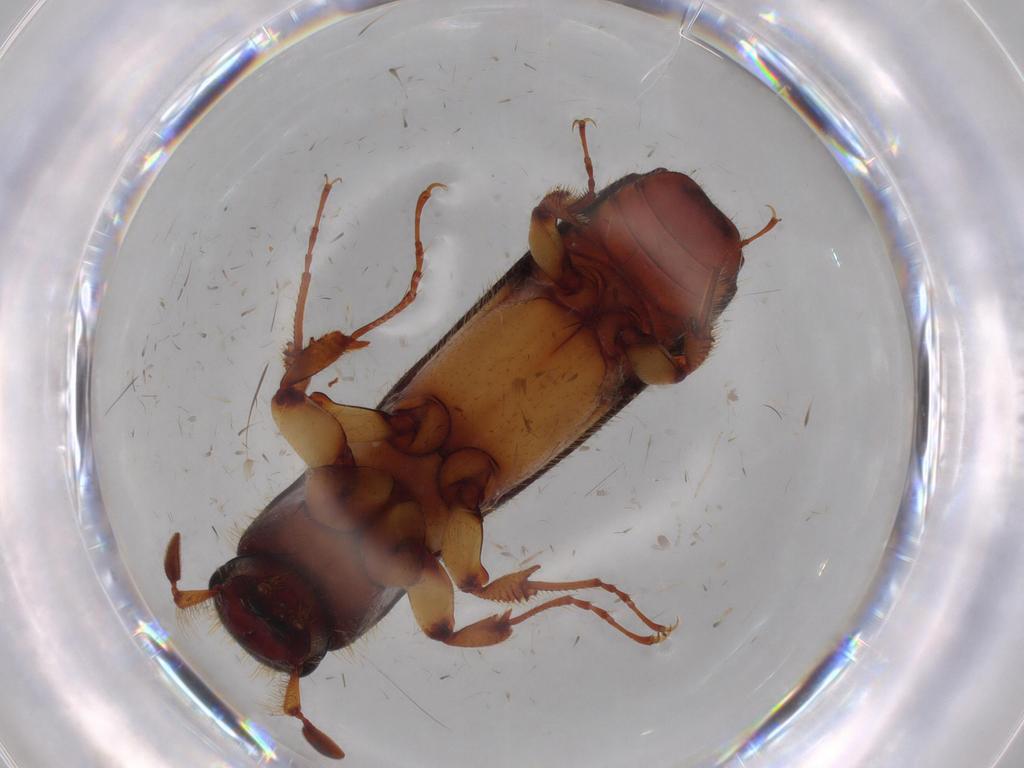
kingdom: Animalia
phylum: Arthropoda
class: Insecta
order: Coleoptera
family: Curculionidae
